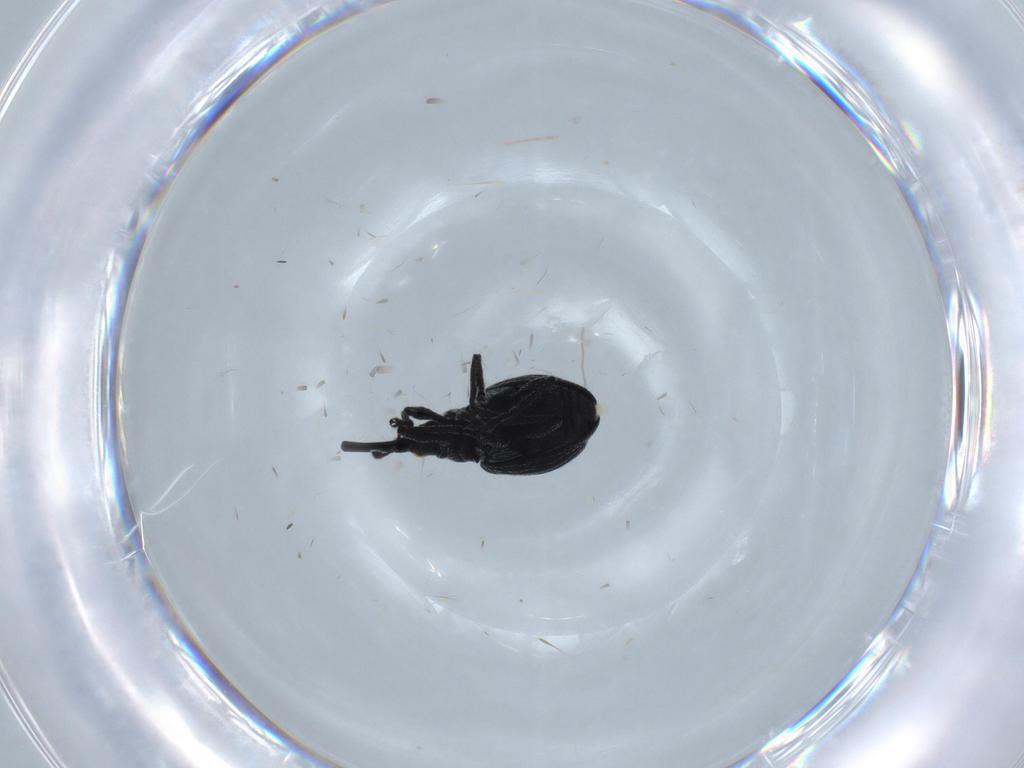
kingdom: Animalia
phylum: Arthropoda
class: Insecta
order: Coleoptera
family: Brentidae
